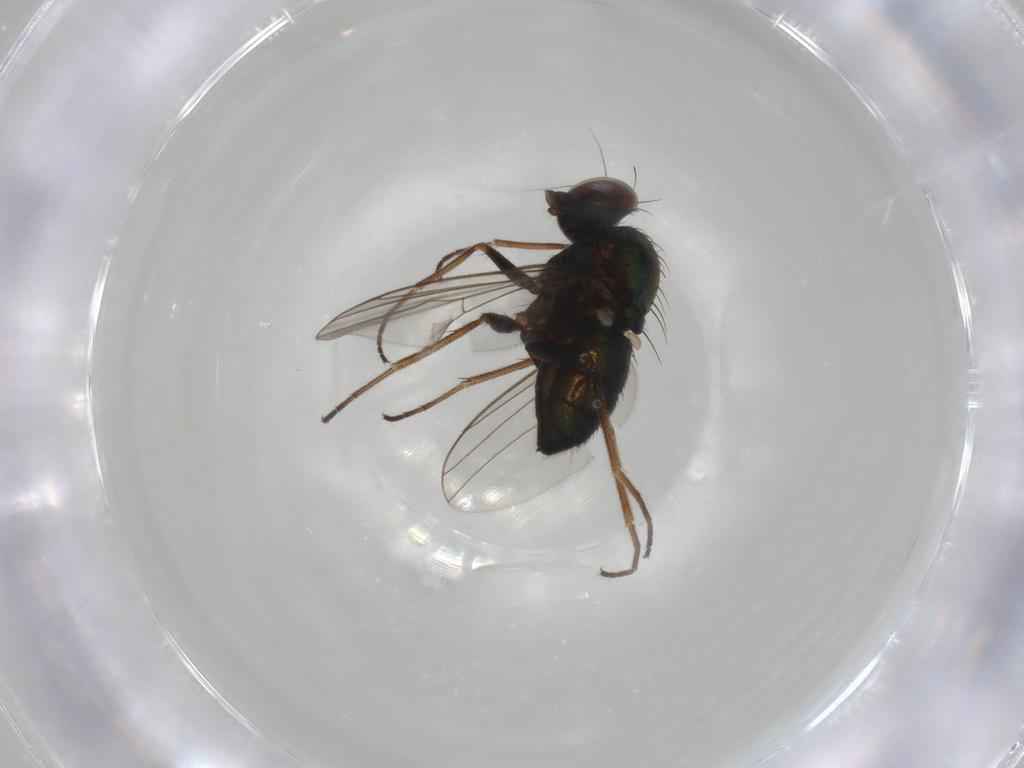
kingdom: Animalia
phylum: Arthropoda
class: Insecta
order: Diptera
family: Dolichopodidae
